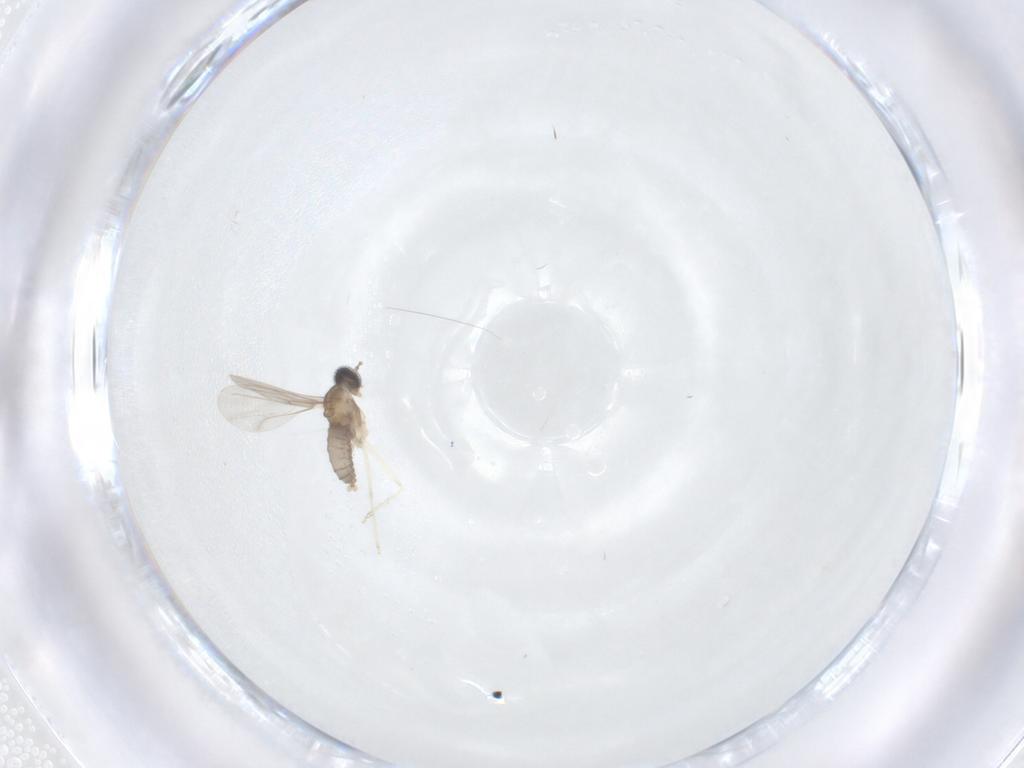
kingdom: Animalia
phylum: Arthropoda
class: Insecta
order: Diptera
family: Cecidomyiidae
